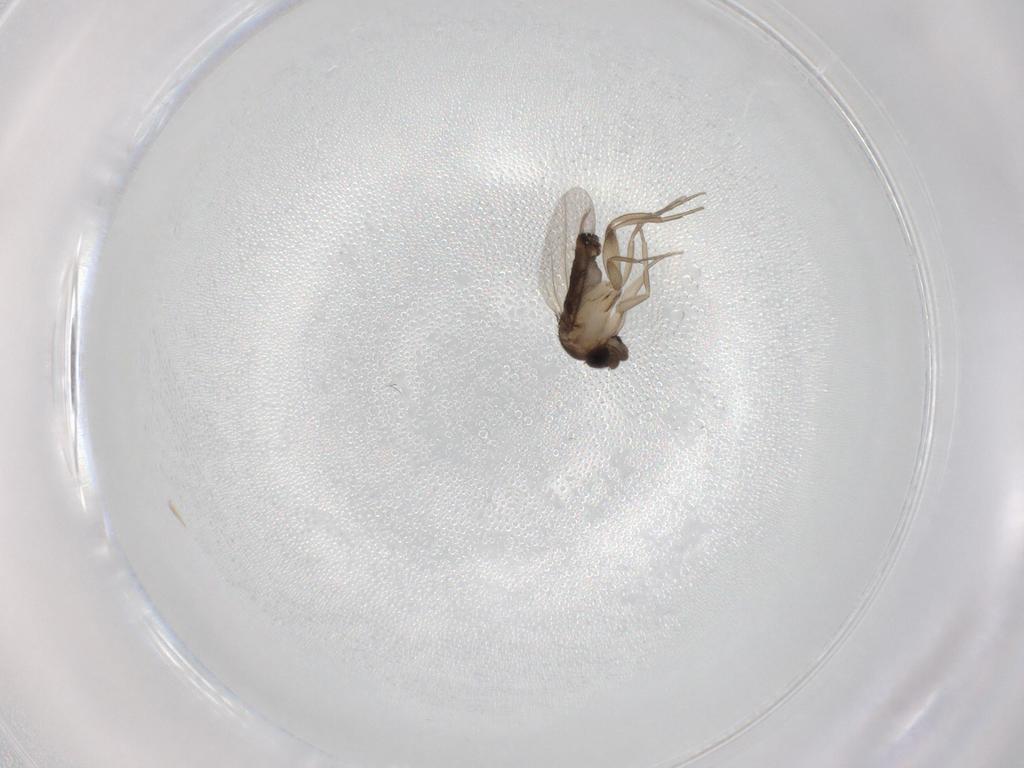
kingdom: Animalia
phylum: Arthropoda
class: Insecta
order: Diptera
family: Phoridae
